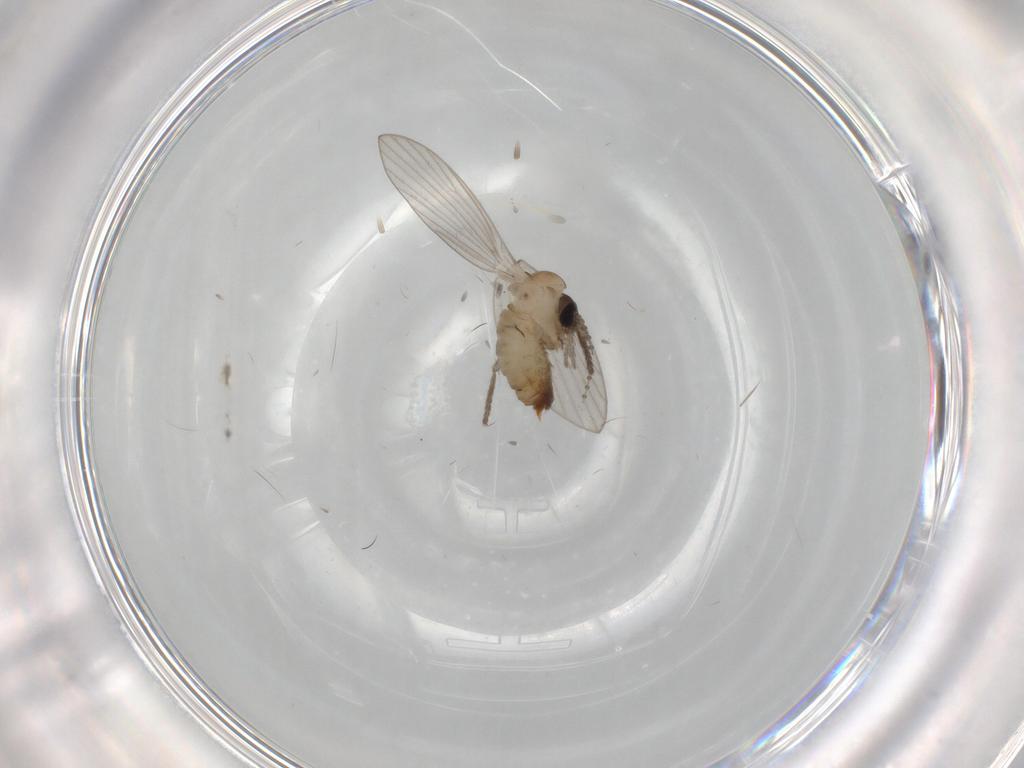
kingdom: Animalia
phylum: Arthropoda
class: Insecta
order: Diptera
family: Psychodidae
